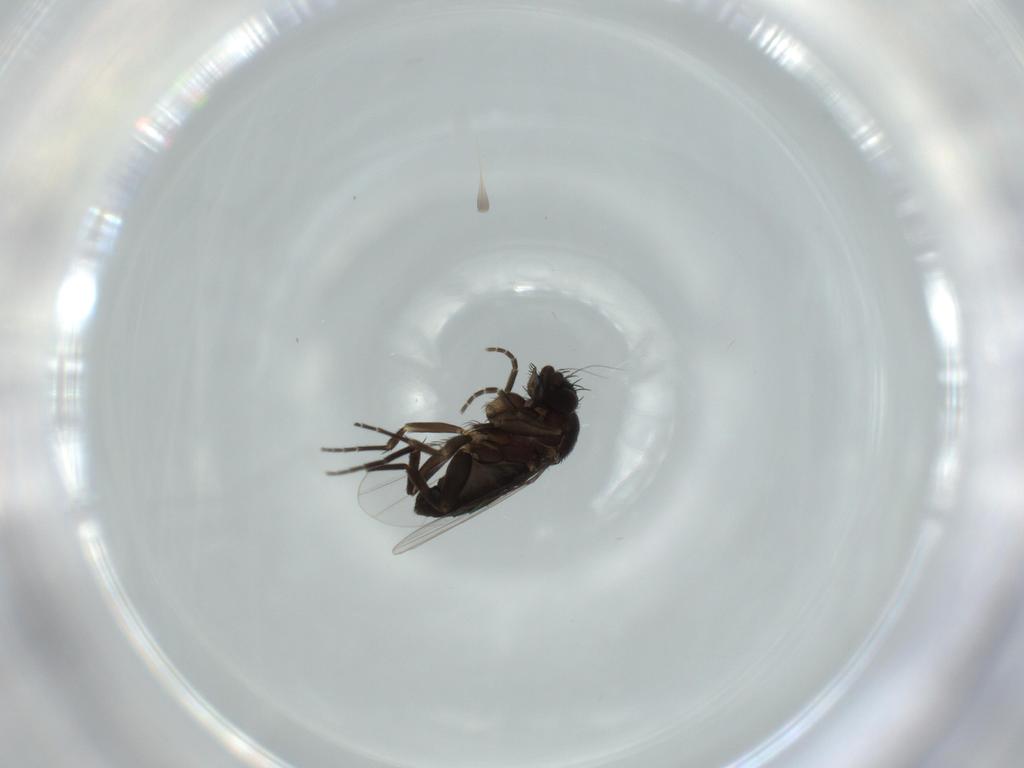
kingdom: Animalia
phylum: Arthropoda
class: Insecta
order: Diptera
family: Phoridae
